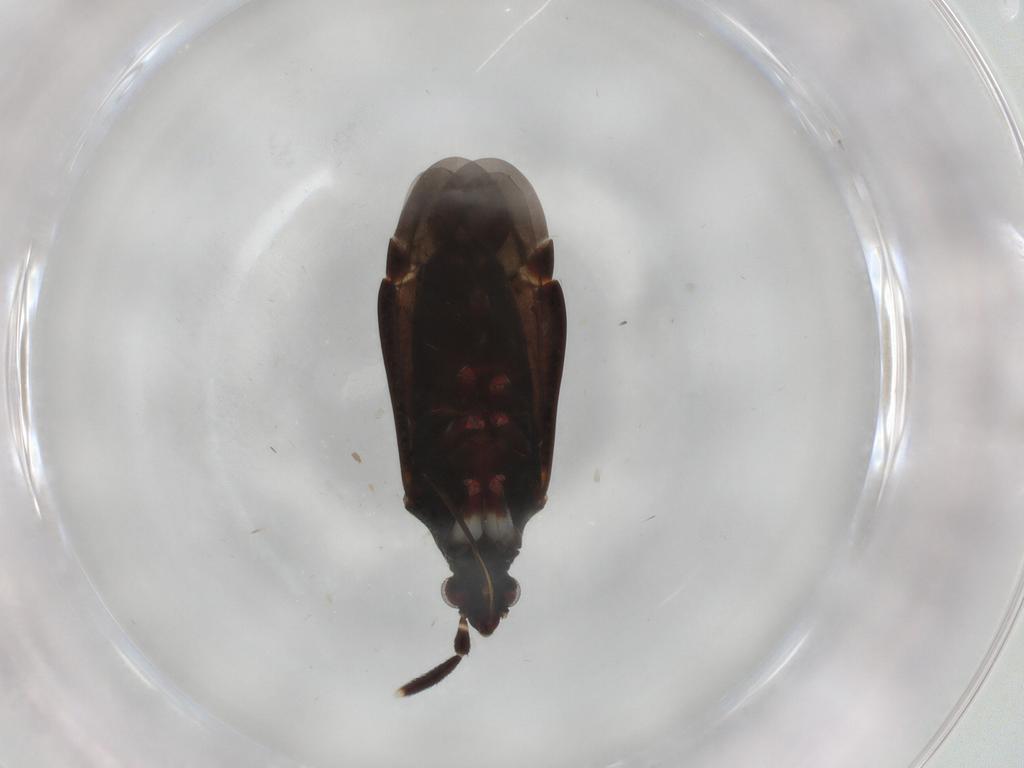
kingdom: Animalia
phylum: Arthropoda
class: Insecta
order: Hemiptera
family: Miridae
